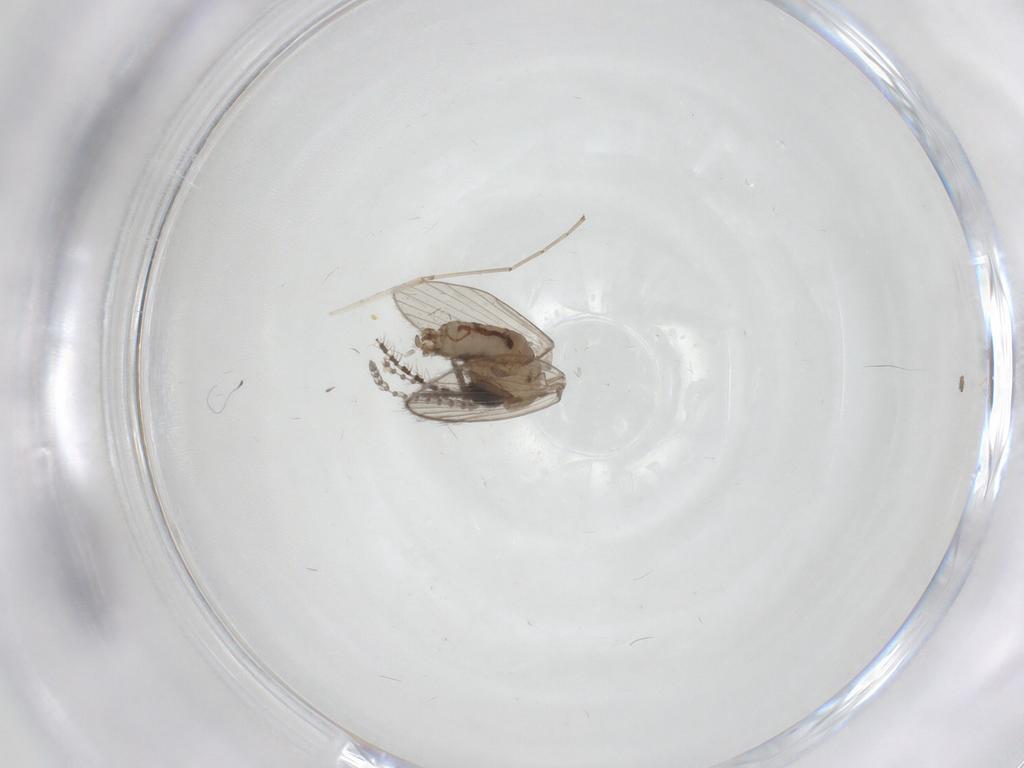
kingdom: Animalia
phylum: Arthropoda
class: Insecta
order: Diptera
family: Psychodidae
